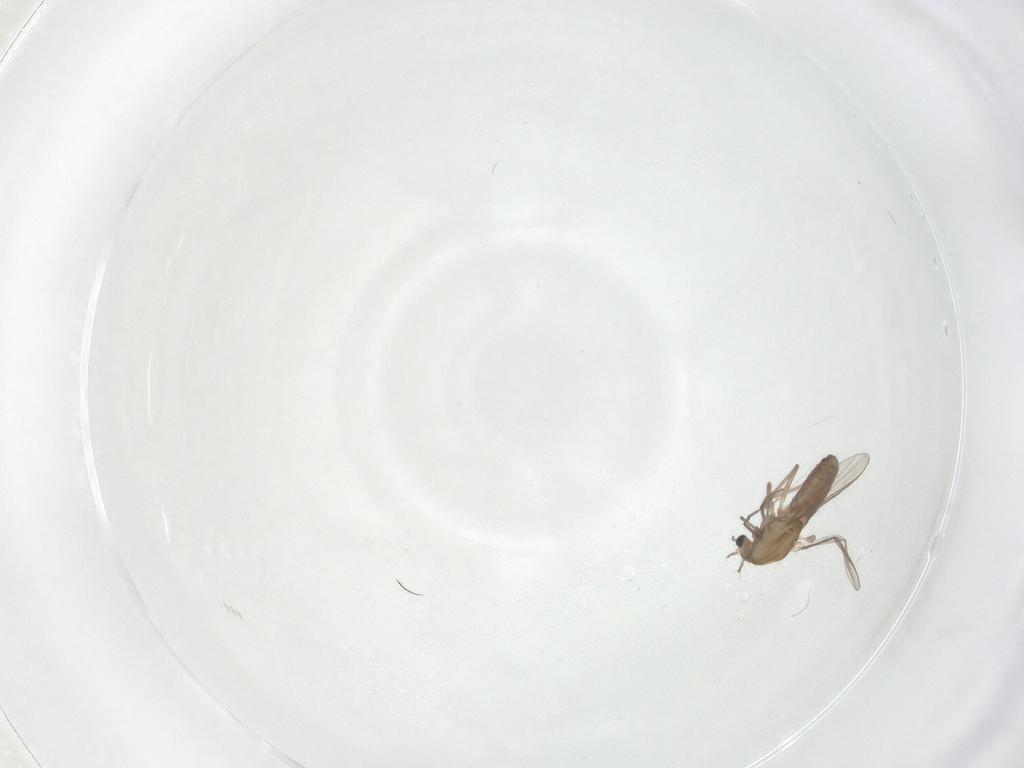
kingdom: Animalia
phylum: Arthropoda
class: Insecta
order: Diptera
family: Chironomidae
